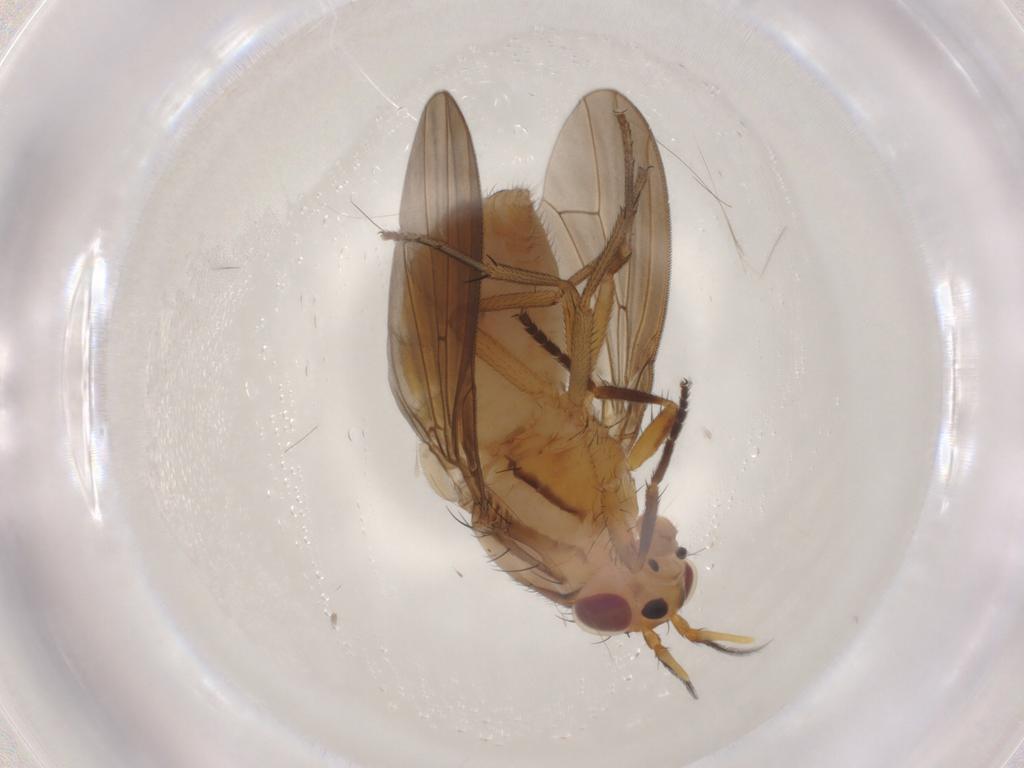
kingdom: Animalia
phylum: Arthropoda
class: Insecta
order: Diptera
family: Lauxaniidae
